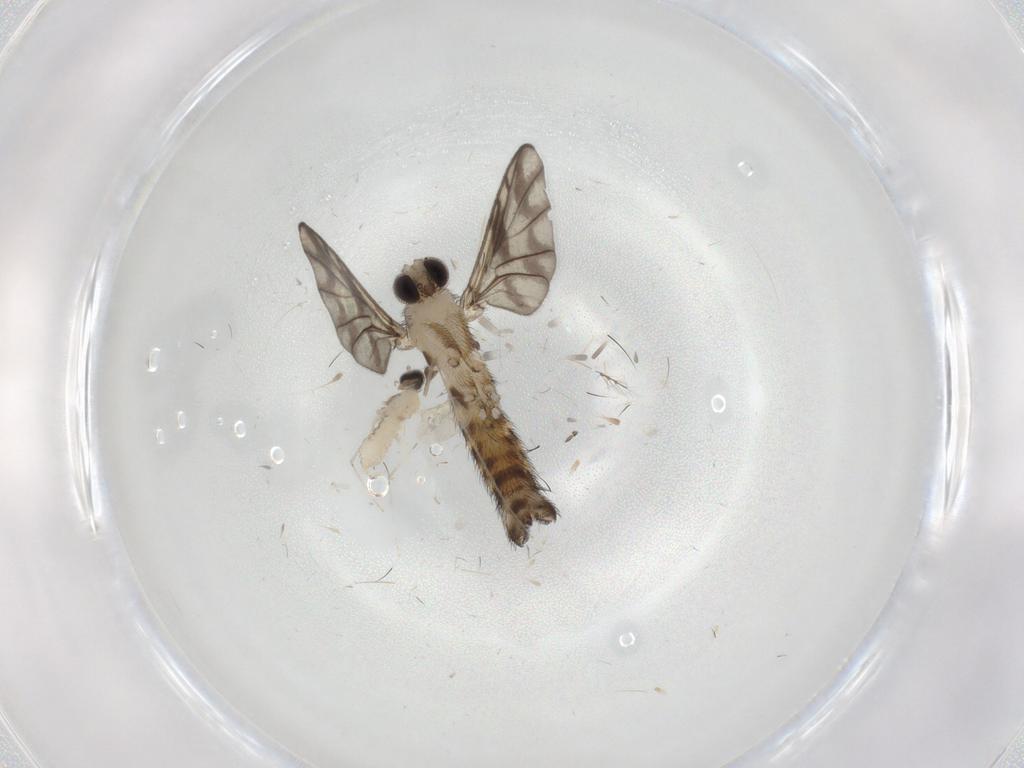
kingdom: Animalia
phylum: Arthropoda
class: Insecta
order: Diptera
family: Keroplatidae
